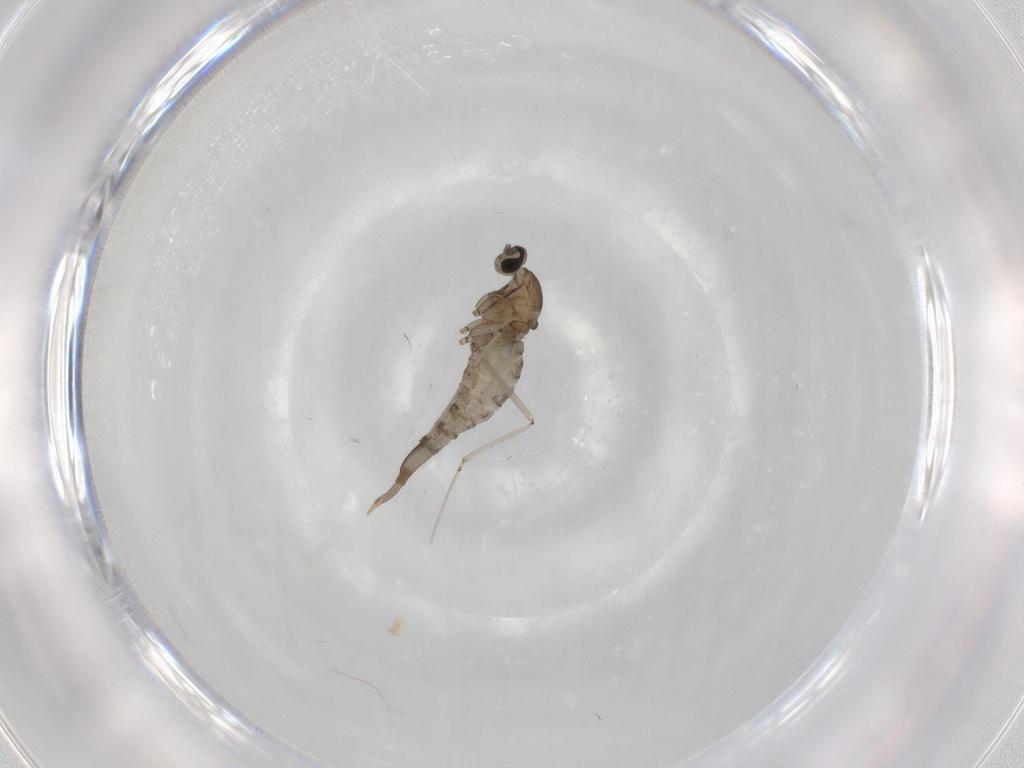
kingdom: Animalia
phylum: Arthropoda
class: Insecta
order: Diptera
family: Cecidomyiidae
